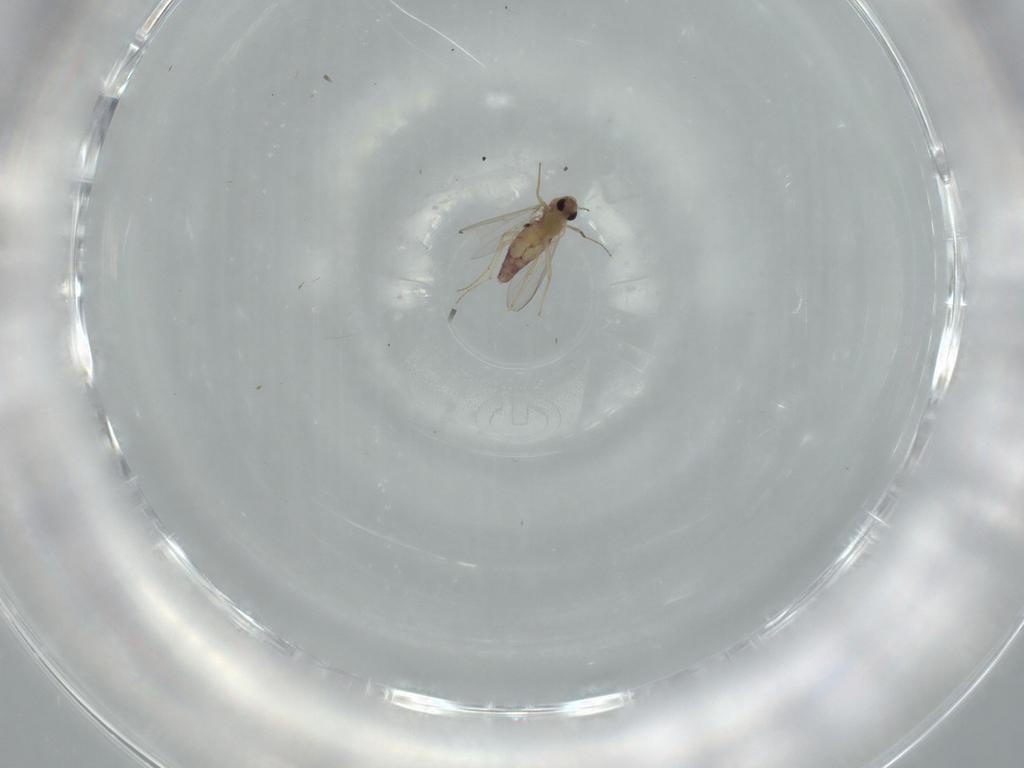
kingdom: Animalia
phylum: Arthropoda
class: Insecta
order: Diptera
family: Chironomidae
